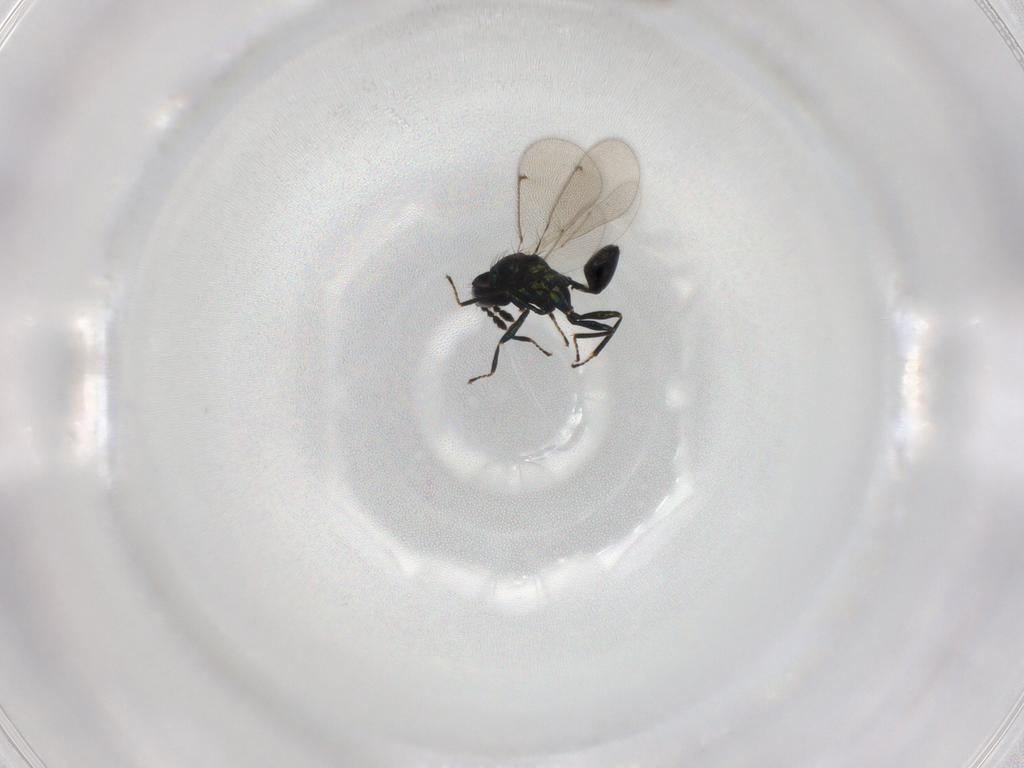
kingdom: Animalia
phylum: Arthropoda
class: Insecta
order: Hymenoptera
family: Eulophidae
